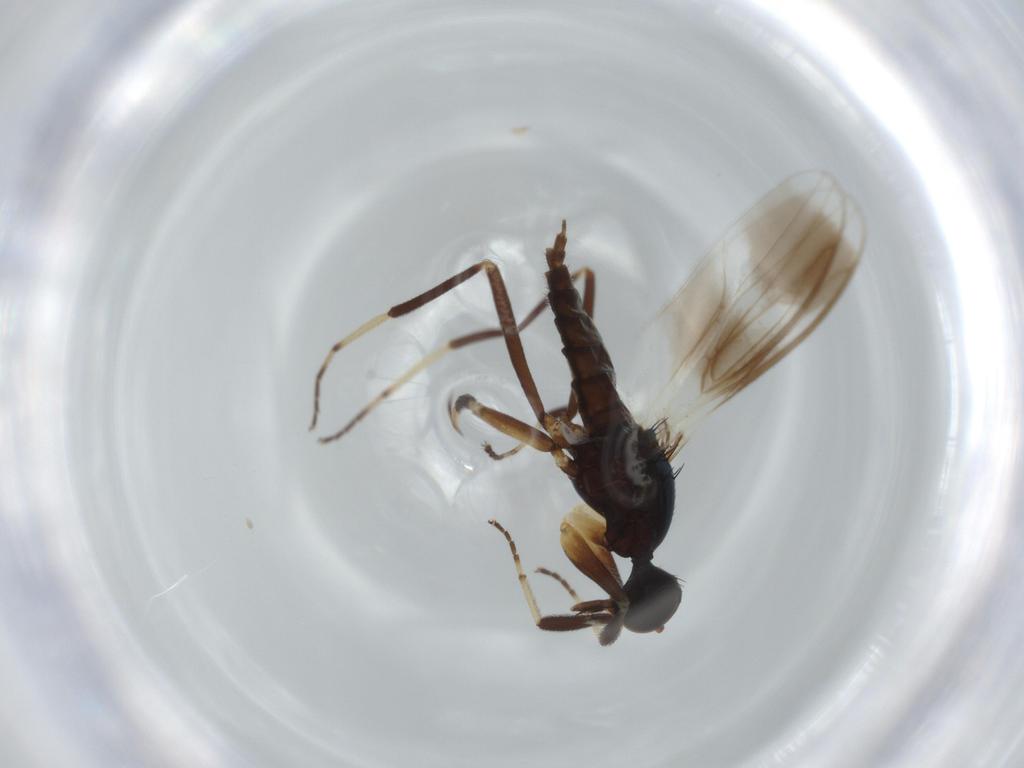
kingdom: Animalia
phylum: Arthropoda
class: Insecta
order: Diptera
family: Hybotidae
